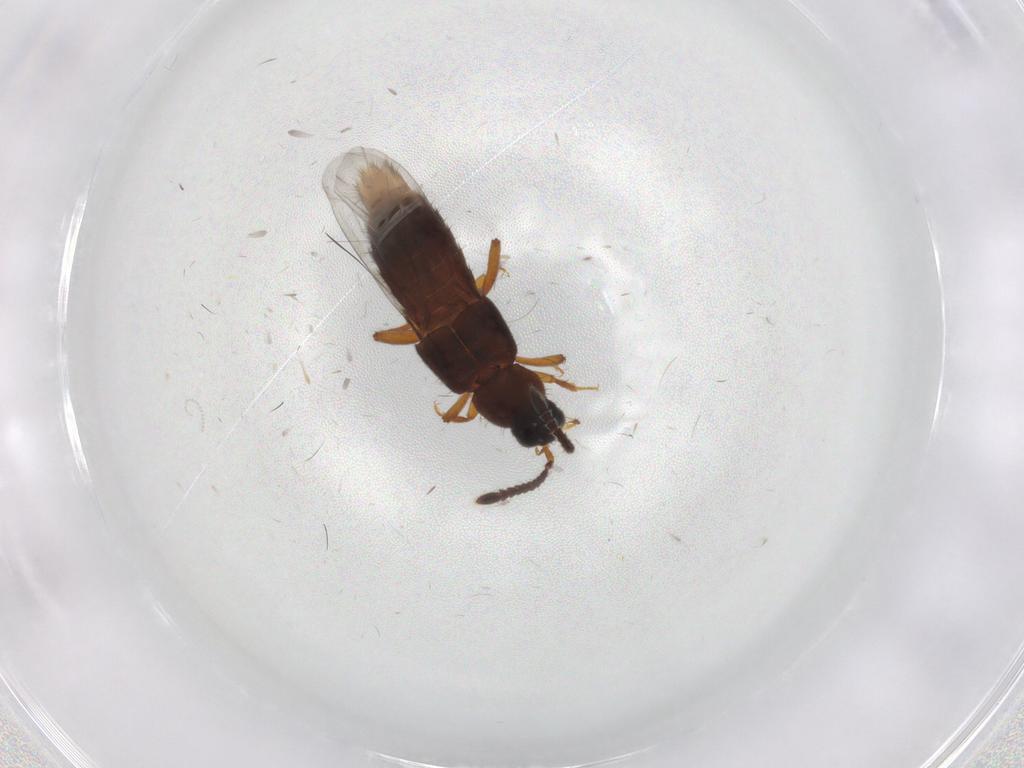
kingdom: Animalia
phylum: Arthropoda
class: Insecta
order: Coleoptera
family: Staphylinidae
